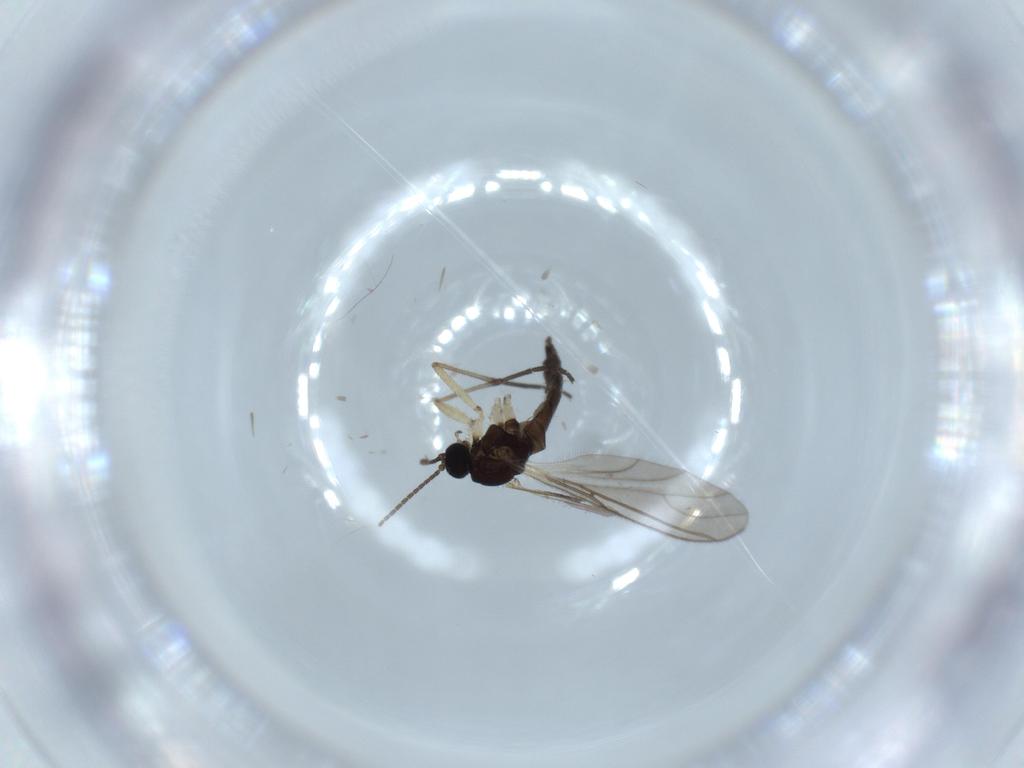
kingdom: Animalia
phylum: Arthropoda
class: Insecta
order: Diptera
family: Sciaridae
